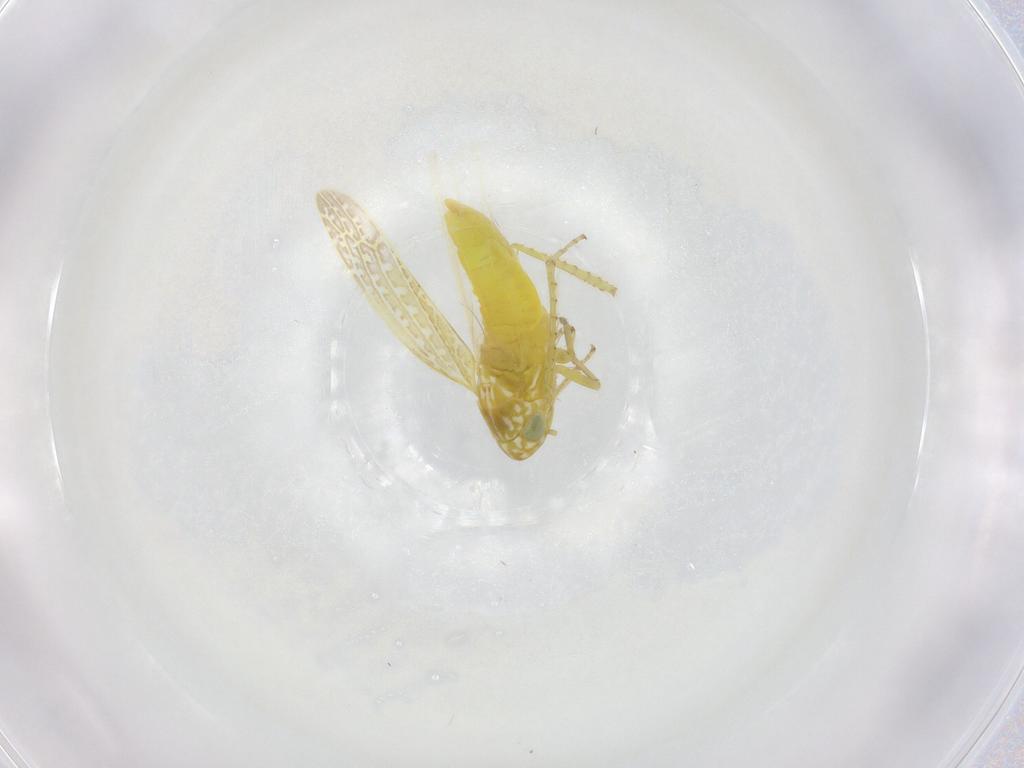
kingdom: Animalia
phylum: Arthropoda
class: Insecta
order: Hemiptera
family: Cicadellidae
